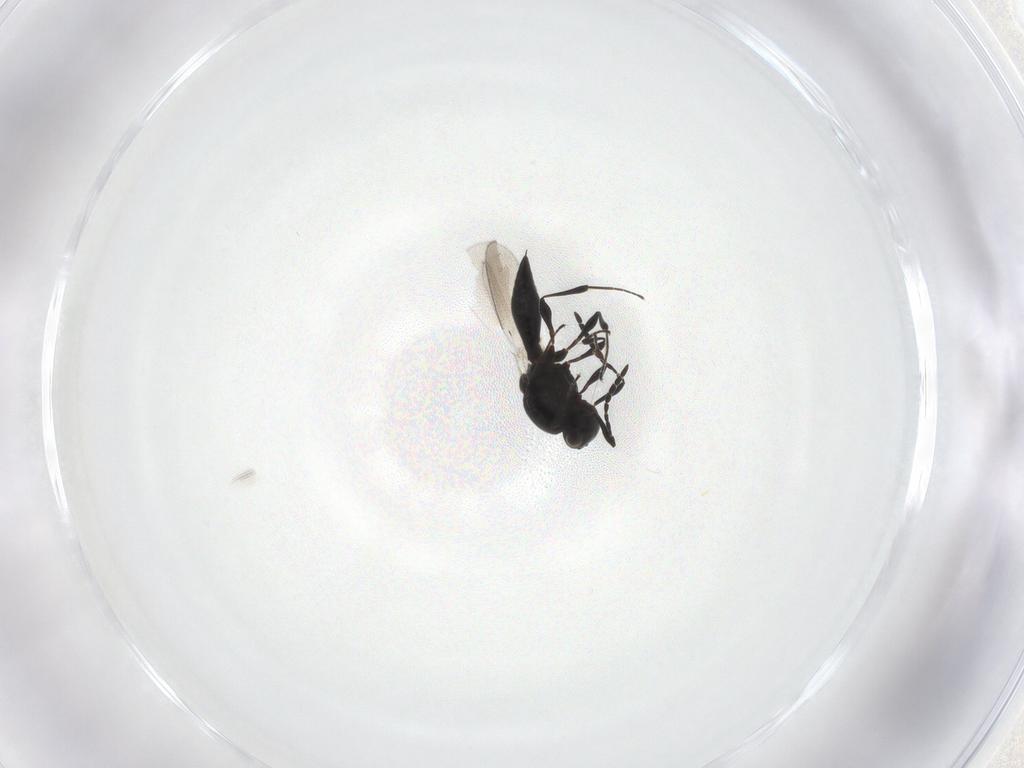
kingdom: Animalia
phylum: Arthropoda
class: Insecta
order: Hymenoptera
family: Platygastridae
